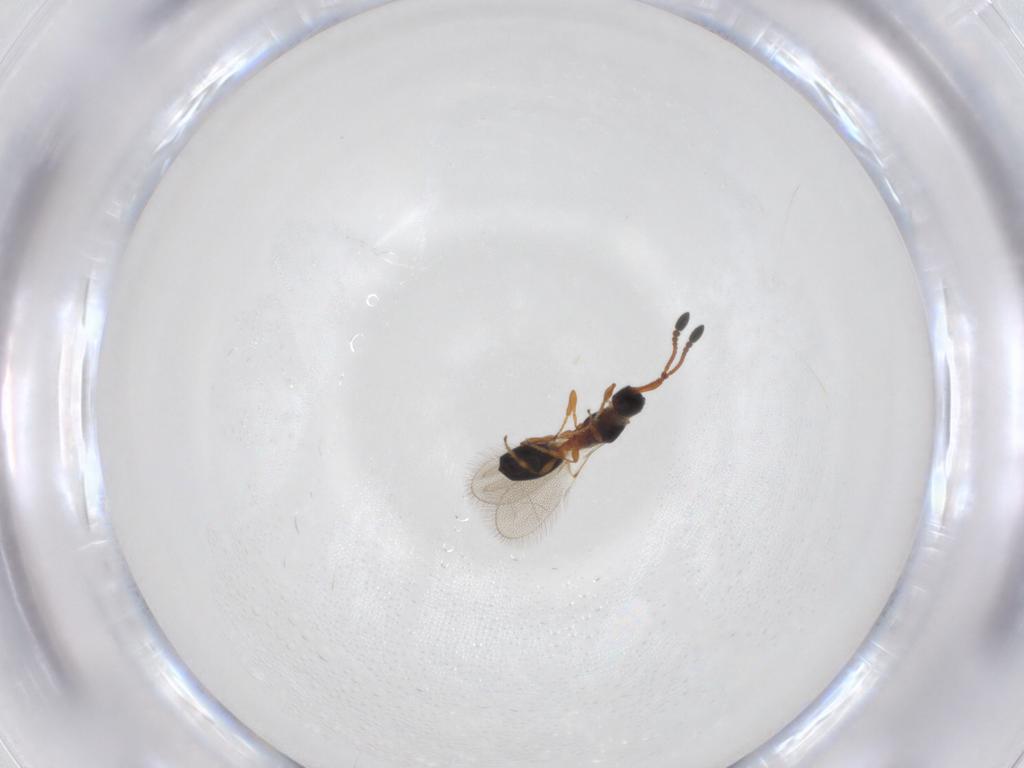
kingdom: Animalia
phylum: Arthropoda
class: Insecta
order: Hymenoptera
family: Diapriidae
